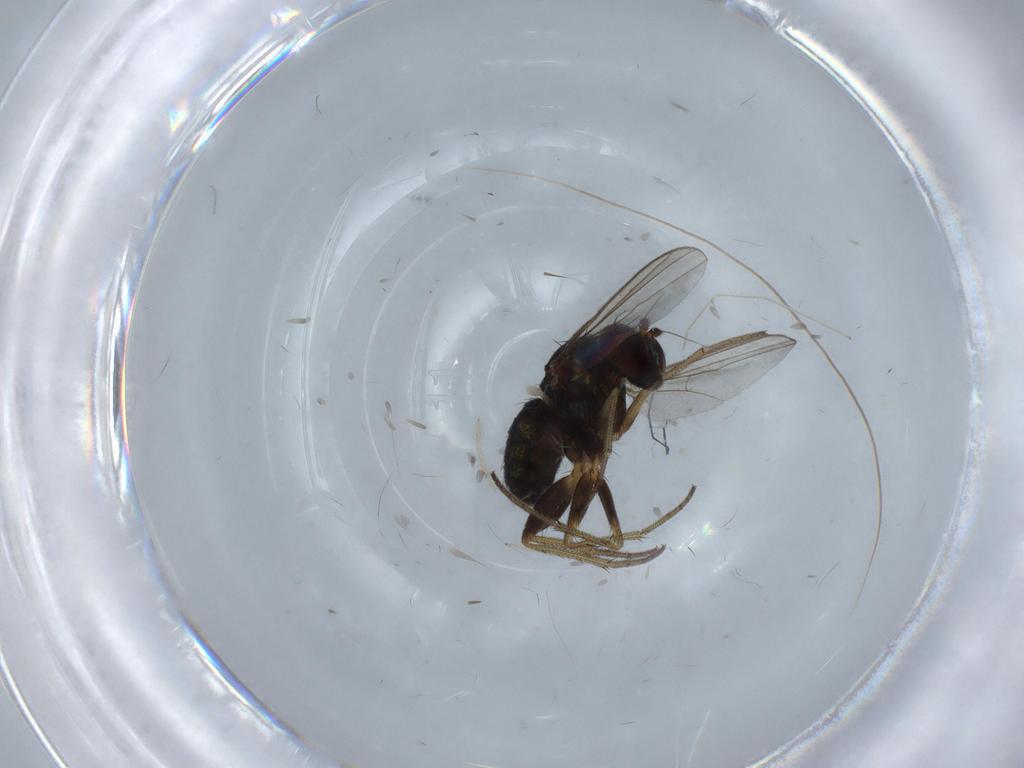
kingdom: Animalia
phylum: Arthropoda
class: Insecta
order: Diptera
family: Chironomidae
